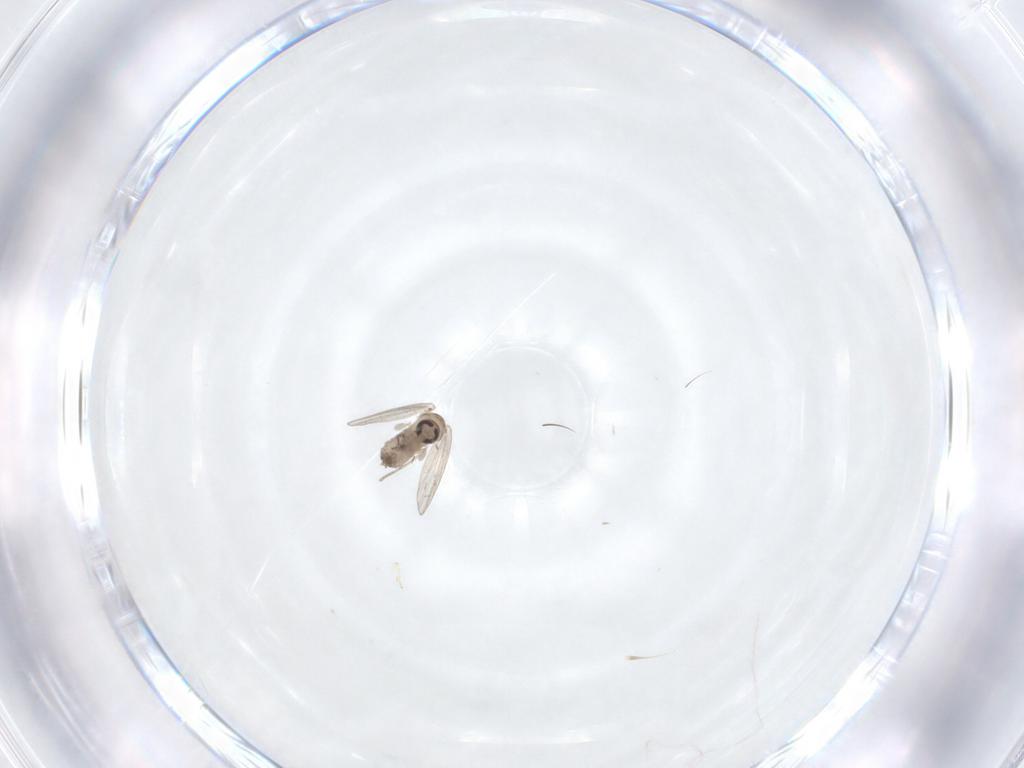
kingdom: Animalia
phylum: Arthropoda
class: Insecta
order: Diptera
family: Psychodidae
